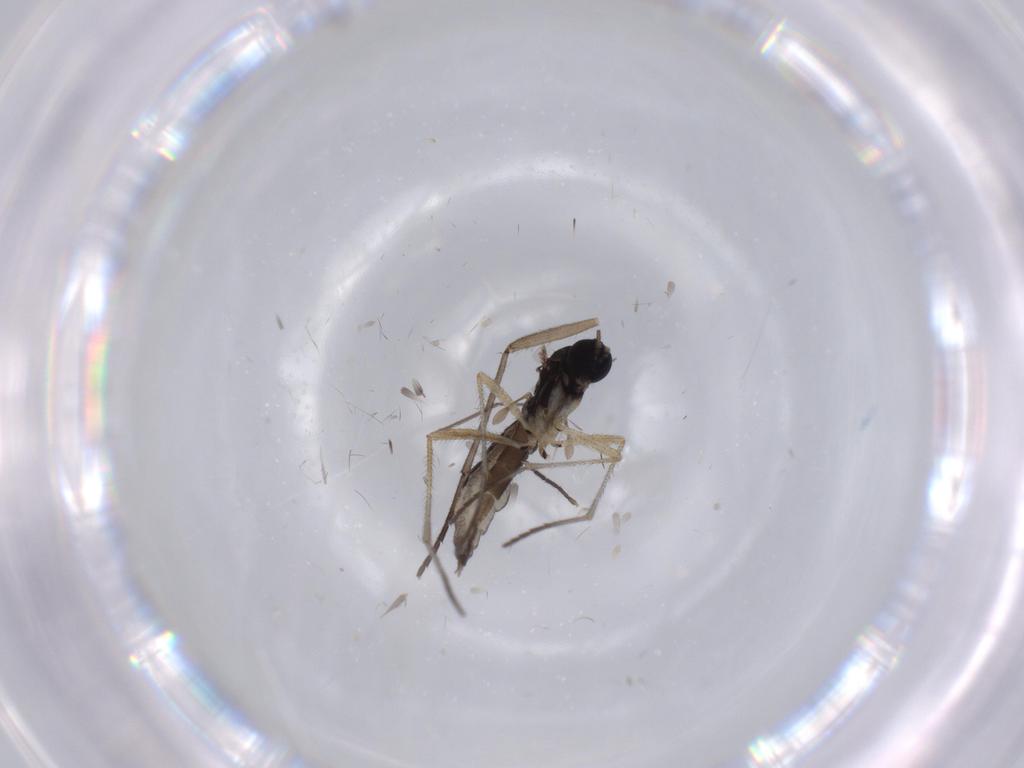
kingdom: Animalia
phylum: Arthropoda
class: Insecta
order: Diptera
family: Sciaridae
